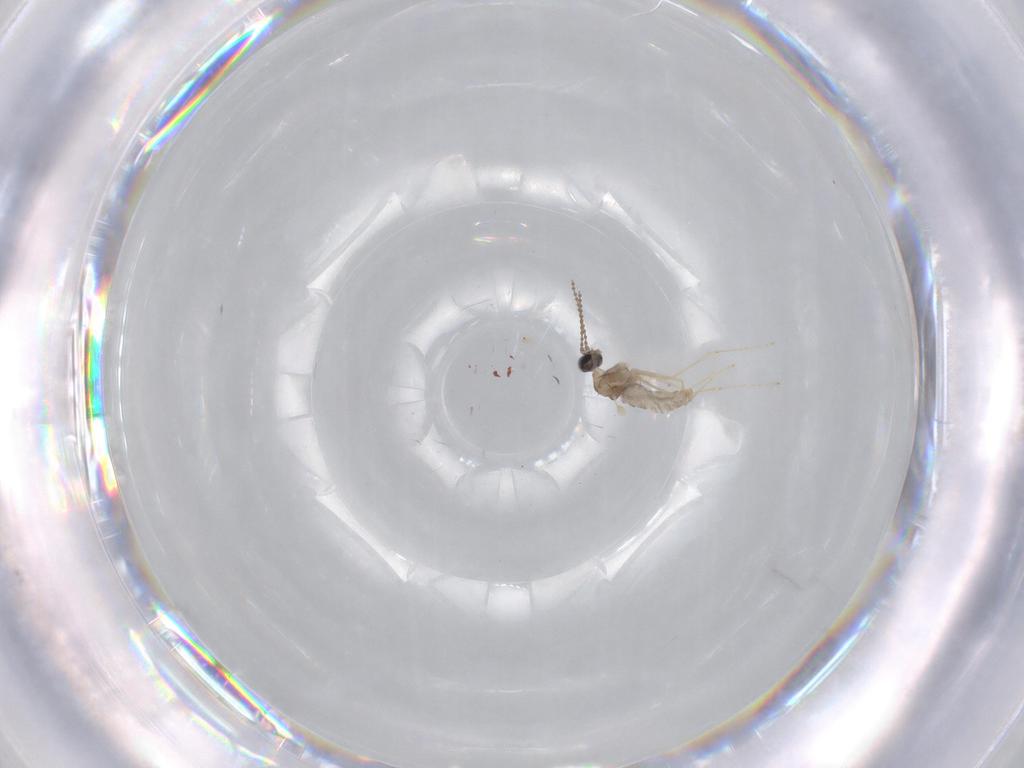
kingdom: Animalia
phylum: Arthropoda
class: Insecta
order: Diptera
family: Cecidomyiidae
